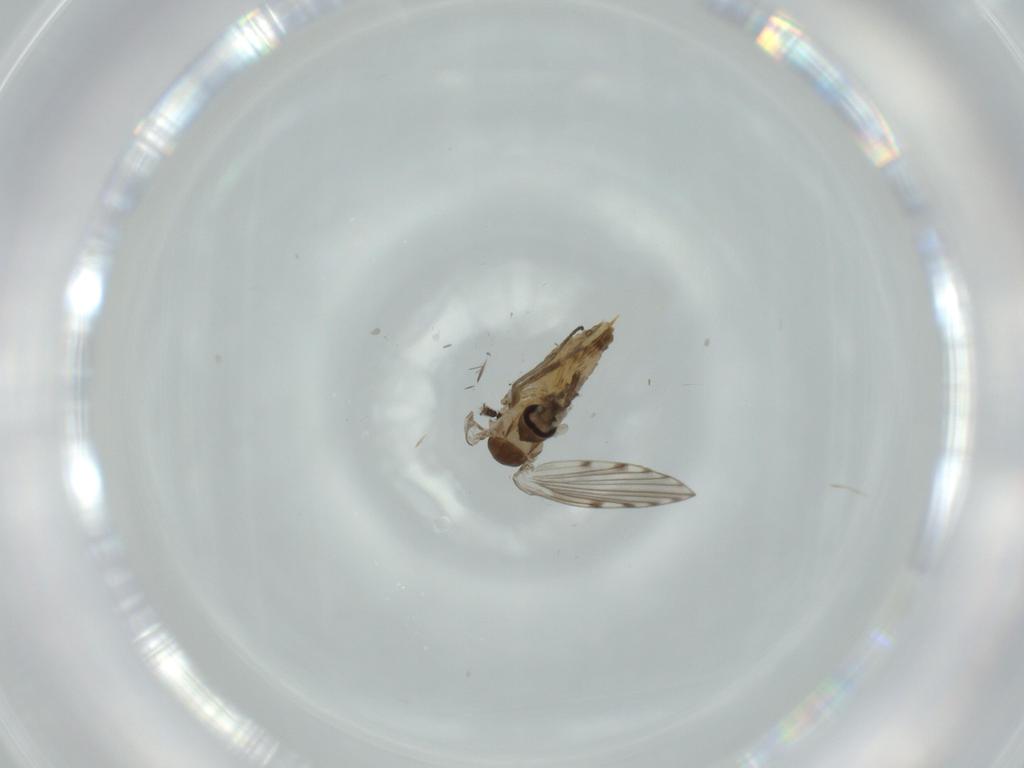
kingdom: Animalia
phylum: Arthropoda
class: Insecta
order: Diptera
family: Sciaridae
